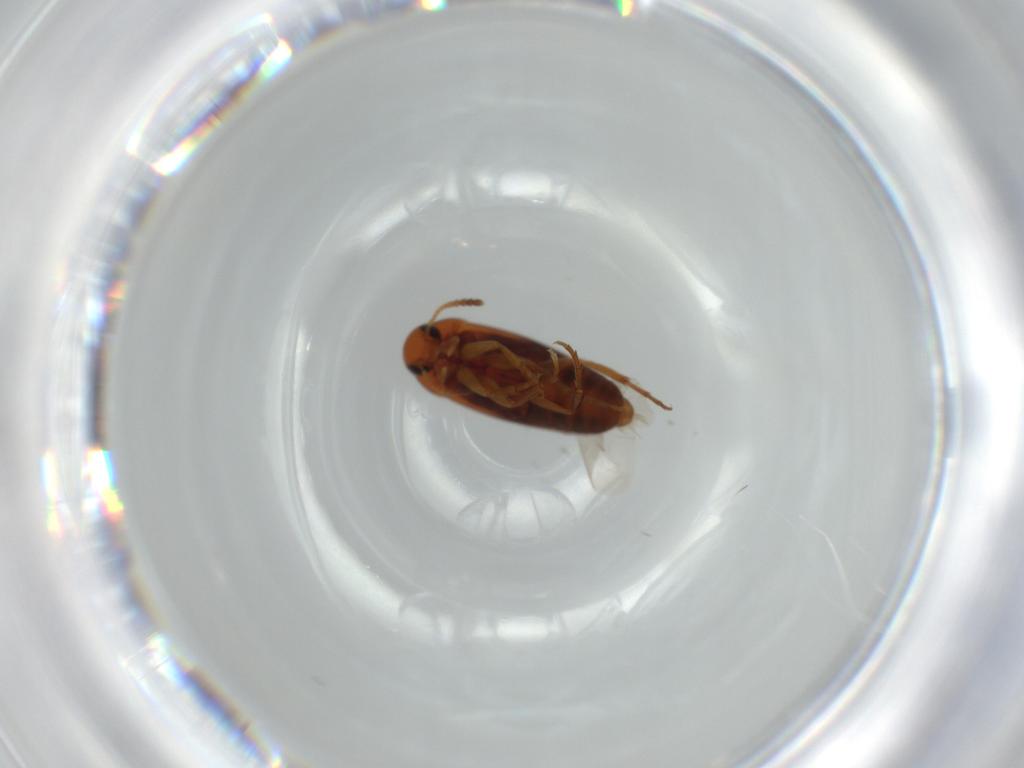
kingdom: Animalia
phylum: Arthropoda
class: Insecta
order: Coleoptera
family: Scraptiidae
